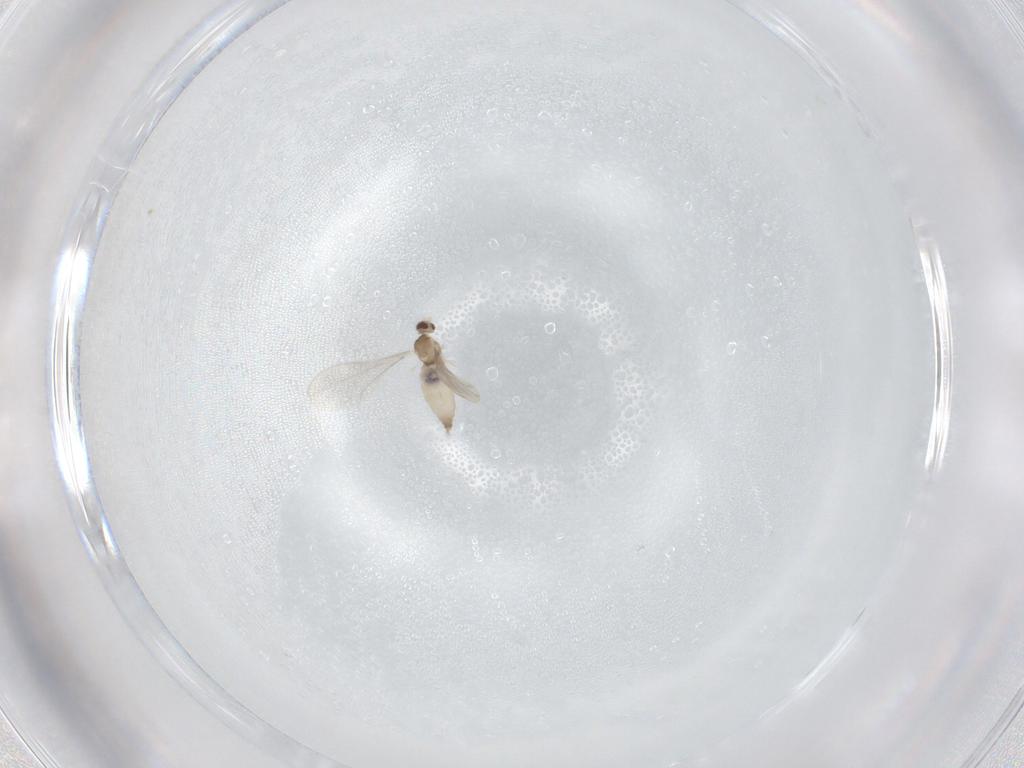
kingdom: Animalia
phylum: Arthropoda
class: Insecta
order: Diptera
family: Cecidomyiidae
